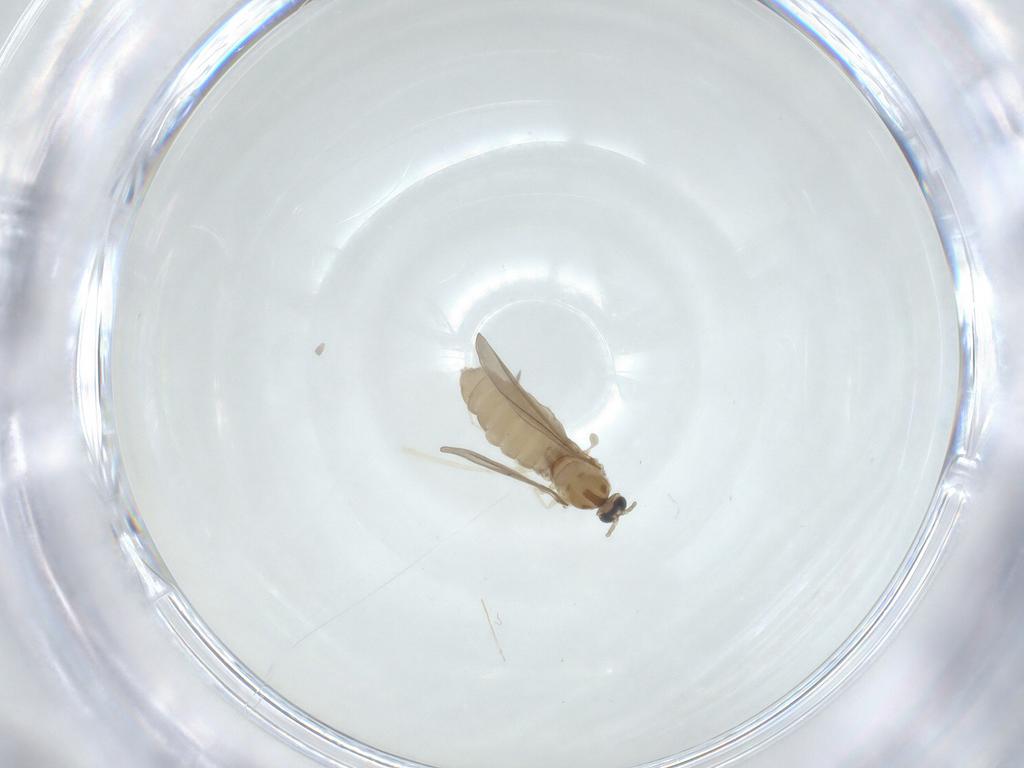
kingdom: Animalia
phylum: Arthropoda
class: Insecta
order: Diptera
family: Cecidomyiidae
